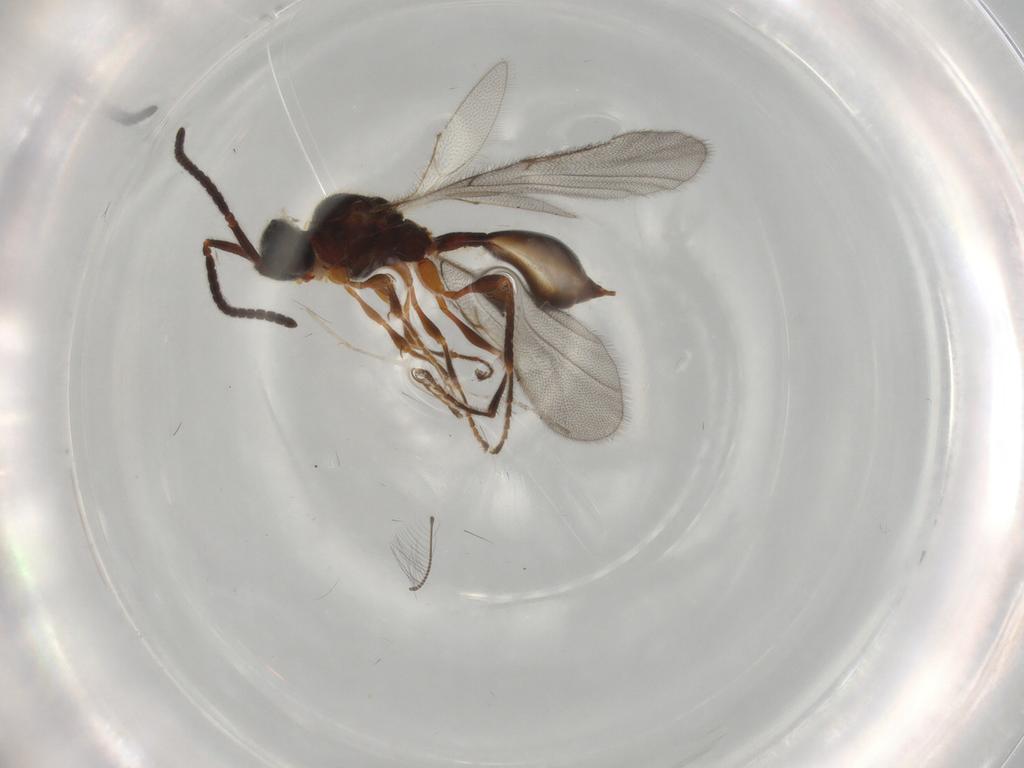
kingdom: Animalia
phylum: Arthropoda
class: Insecta
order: Hymenoptera
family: Diapriidae
